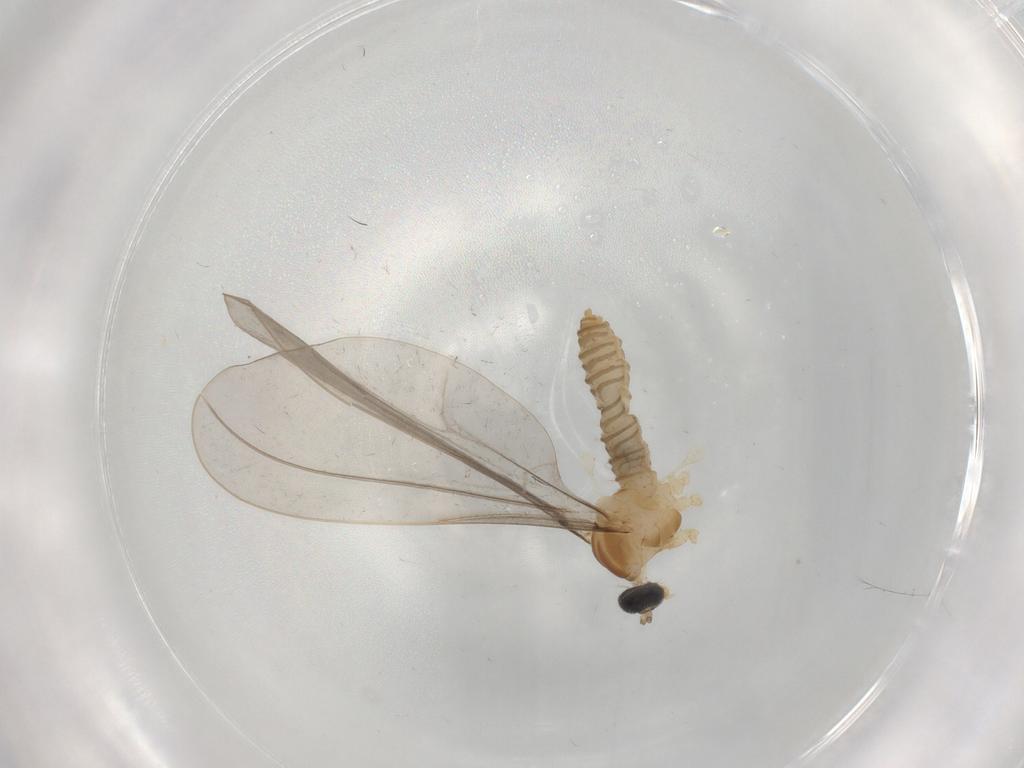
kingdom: Animalia
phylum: Arthropoda
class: Insecta
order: Diptera
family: Cecidomyiidae
